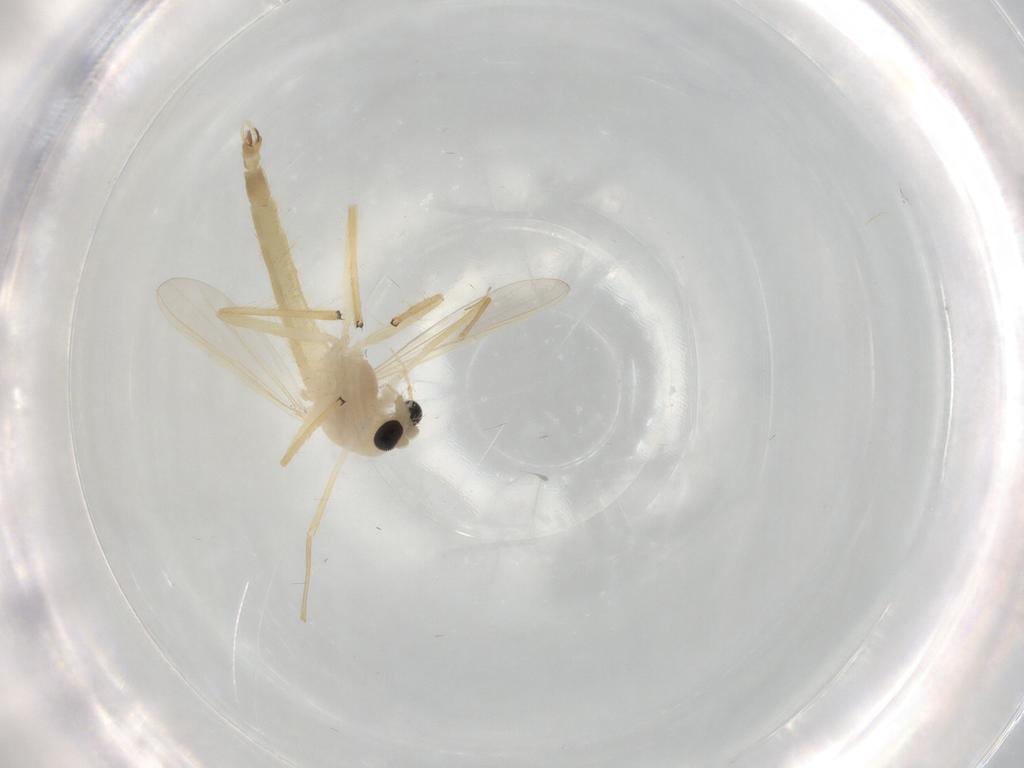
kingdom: Animalia
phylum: Arthropoda
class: Insecta
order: Diptera
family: Chironomidae
